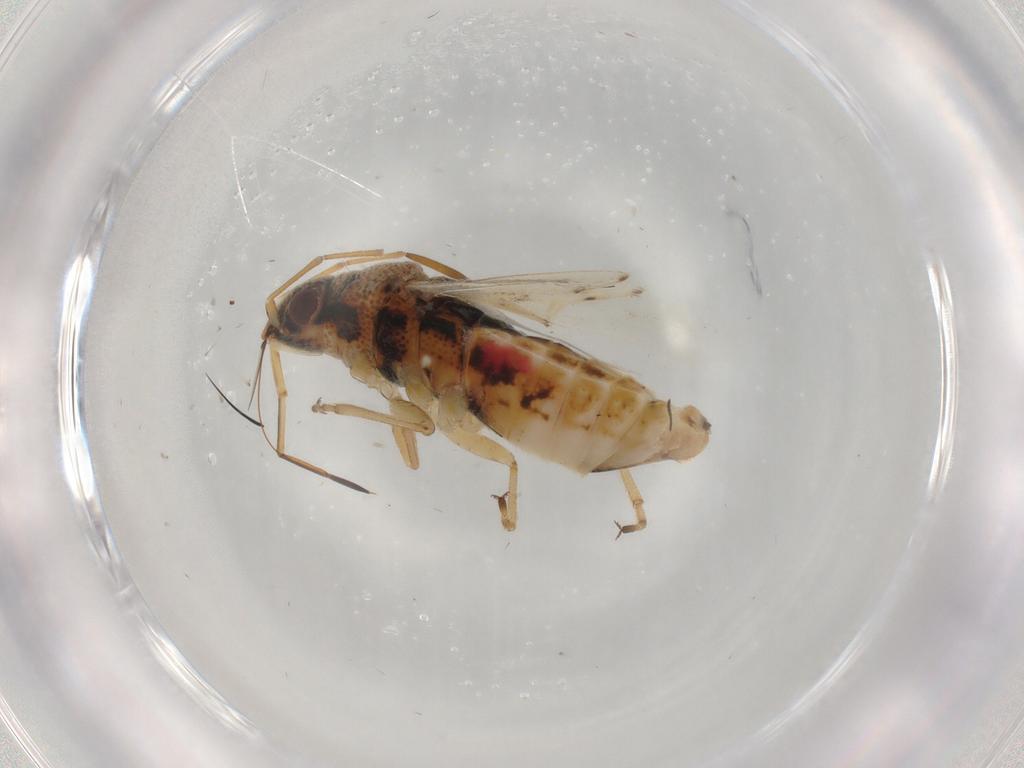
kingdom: Animalia
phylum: Arthropoda
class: Insecta
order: Hymenoptera
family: Scelionidae
